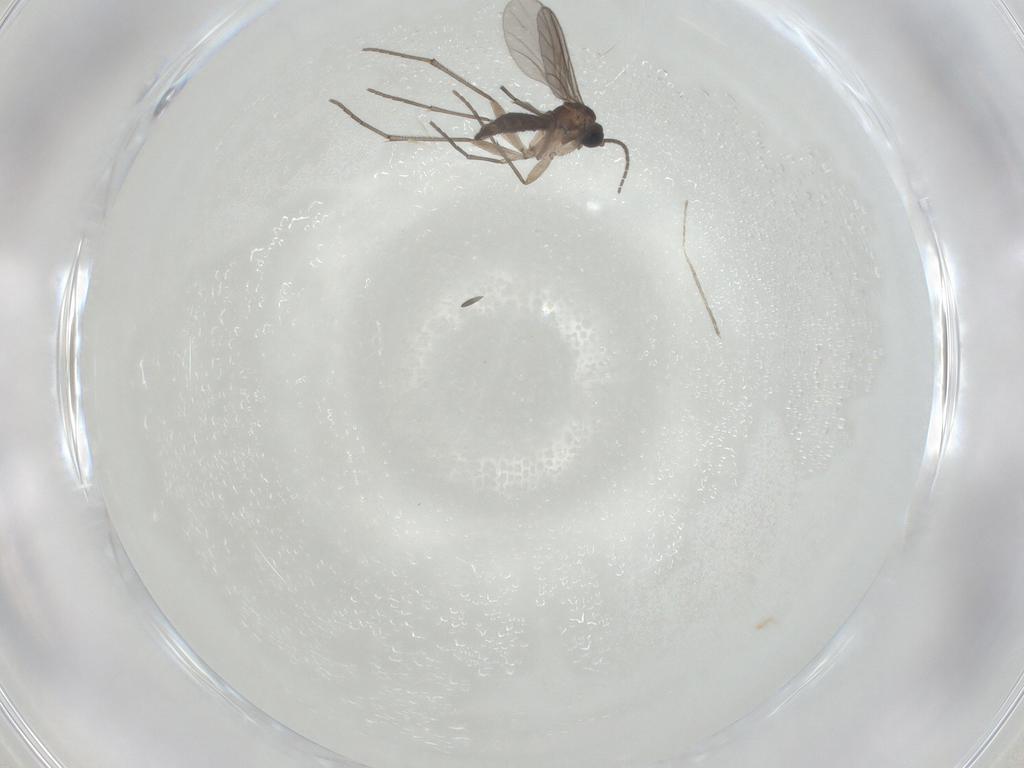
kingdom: Animalia
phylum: Arthropoda
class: Insecta
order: Diptera
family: Sciaridae
